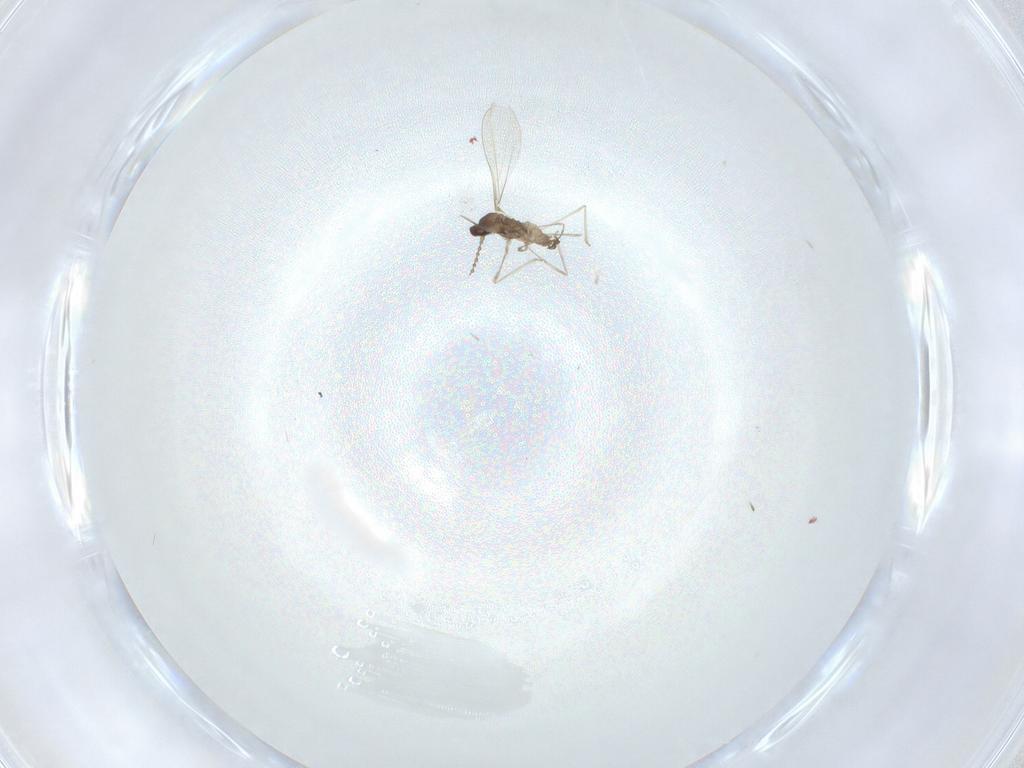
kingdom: Animalia
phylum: Arthropoda
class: Insecta
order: Diptera
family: Cecidomyiidae
